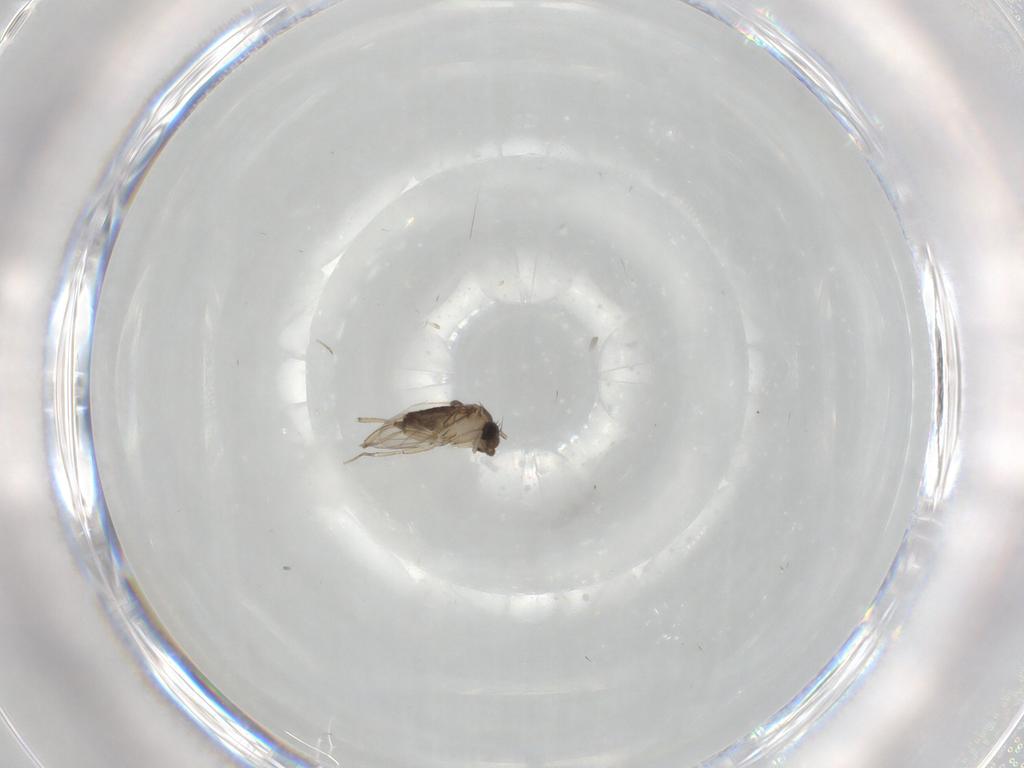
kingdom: Animalia
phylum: Arthropoda
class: Insecta
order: Diptera
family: Phoridae
